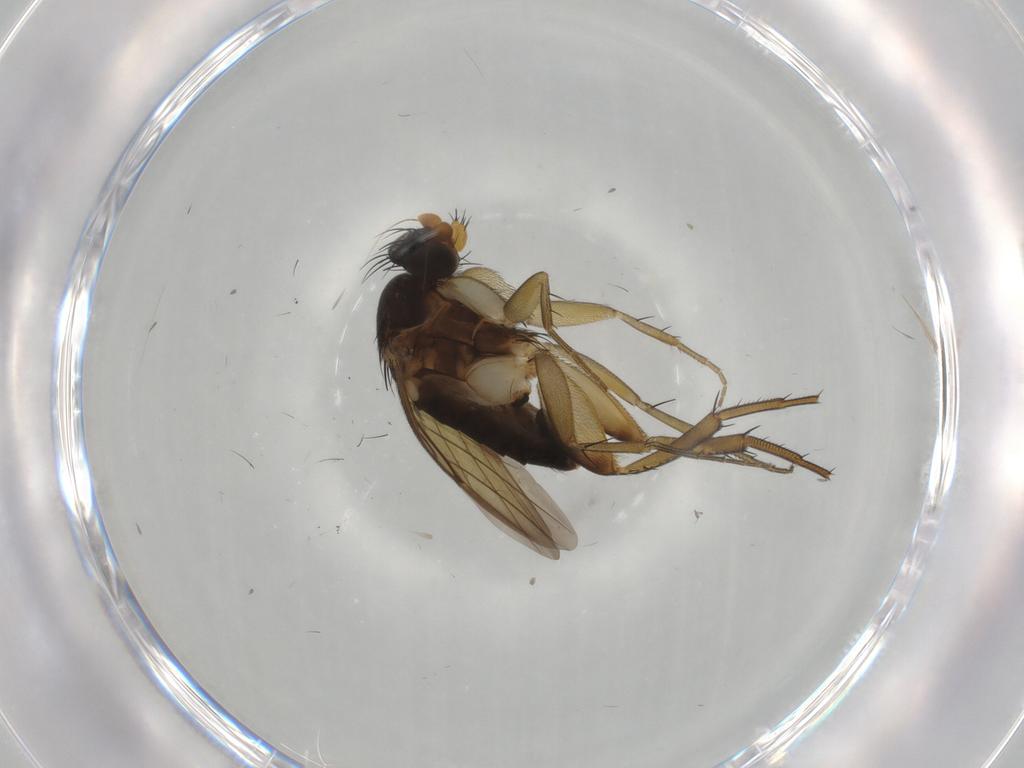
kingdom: Animalia
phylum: Arthropoda
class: Insecta
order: Diptera
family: Phoridae
